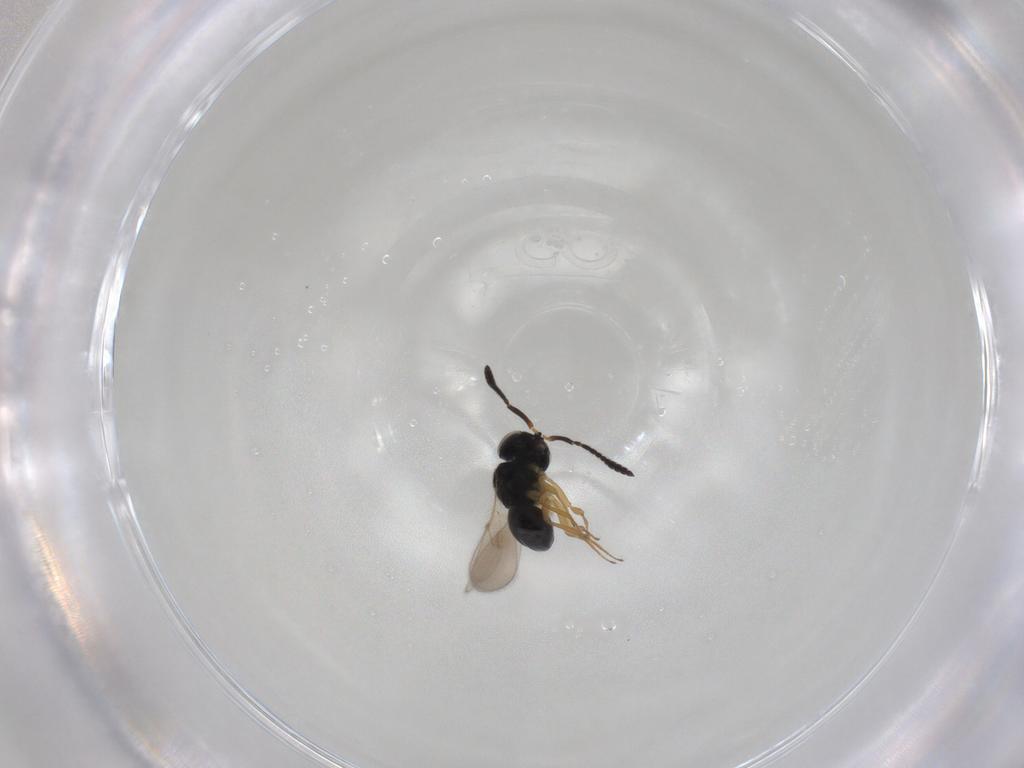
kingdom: Animalia
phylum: Arthropoda
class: Insecta
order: Hymenoptera
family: Scelionidae
